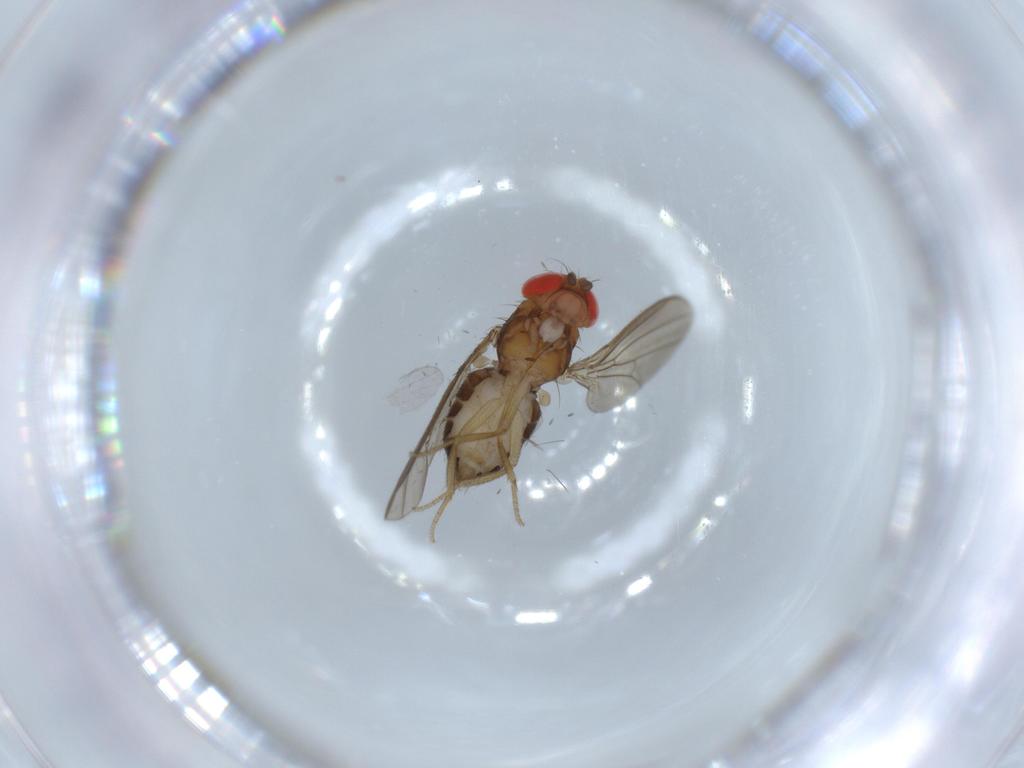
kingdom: Animalia
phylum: Arthropoda
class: Insecta
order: Diptera
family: Drosophilidae
